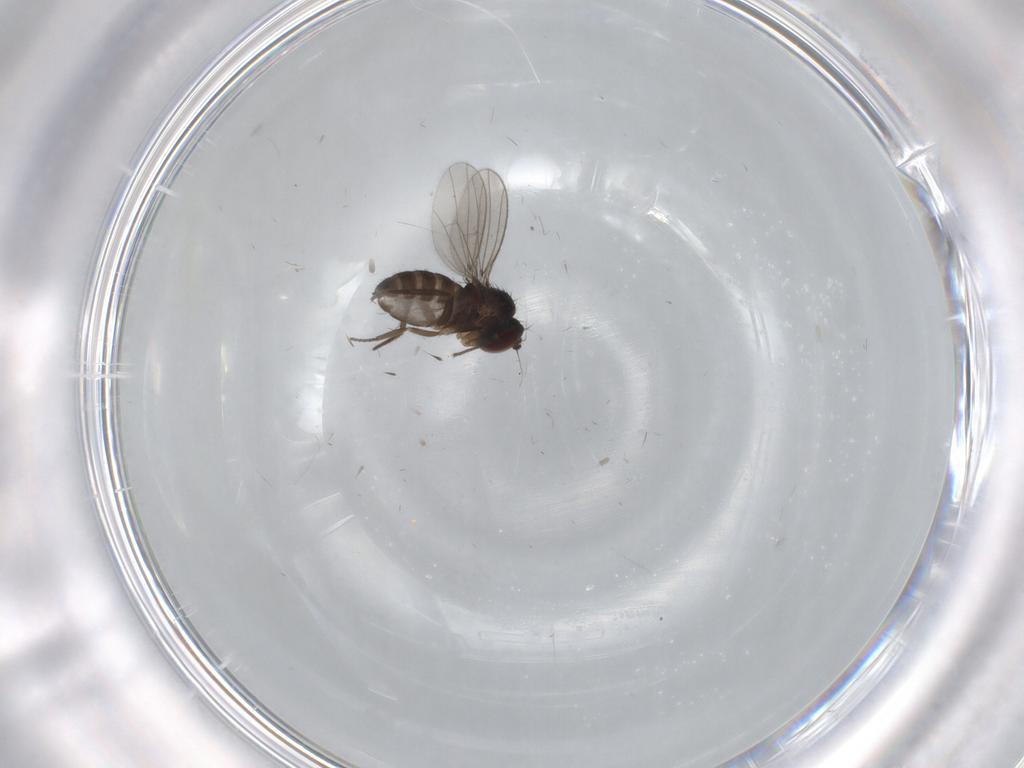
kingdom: Animalia
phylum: Arthropoda
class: Insecta
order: Diptera
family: Dolichopodidae
